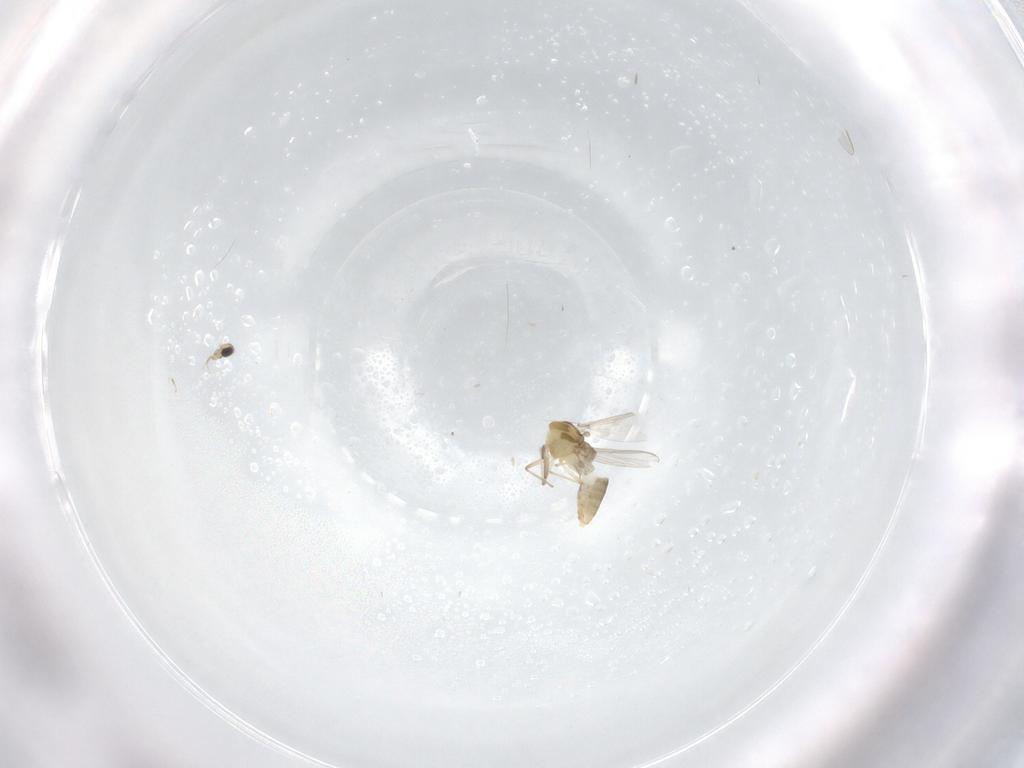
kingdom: Animalia
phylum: Arthropoda
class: Insecta
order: Diptera
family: Chironomidae
